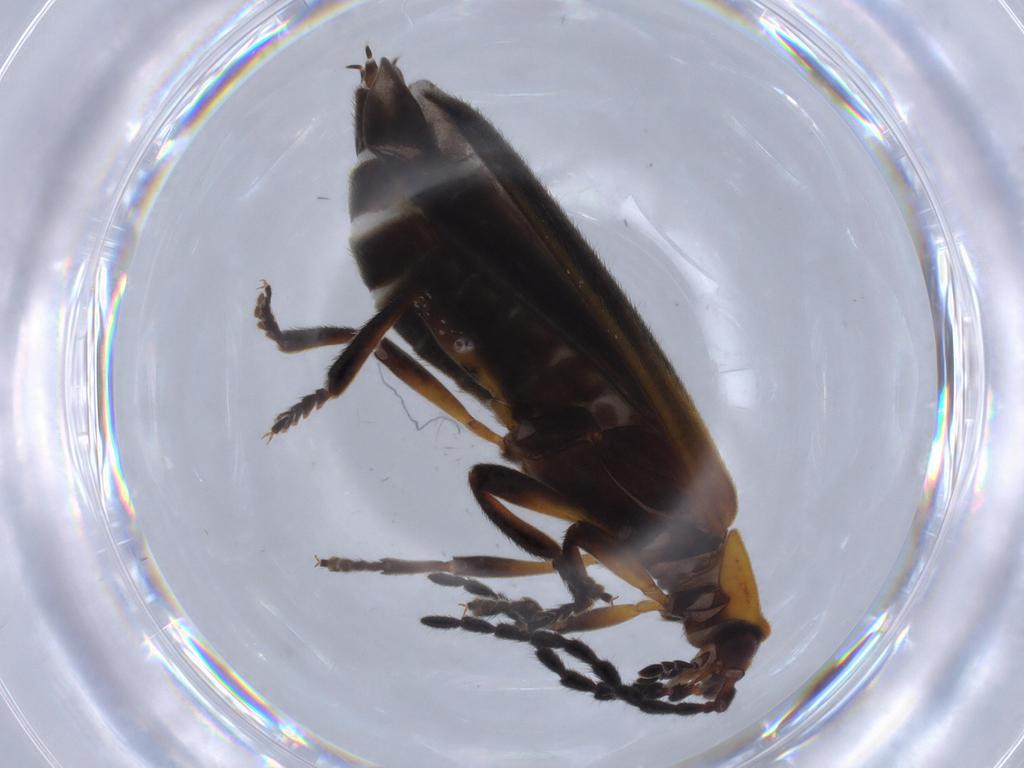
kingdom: Animalia
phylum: Arthropoda
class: Insecta
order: Coleoptera
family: Lycidae
